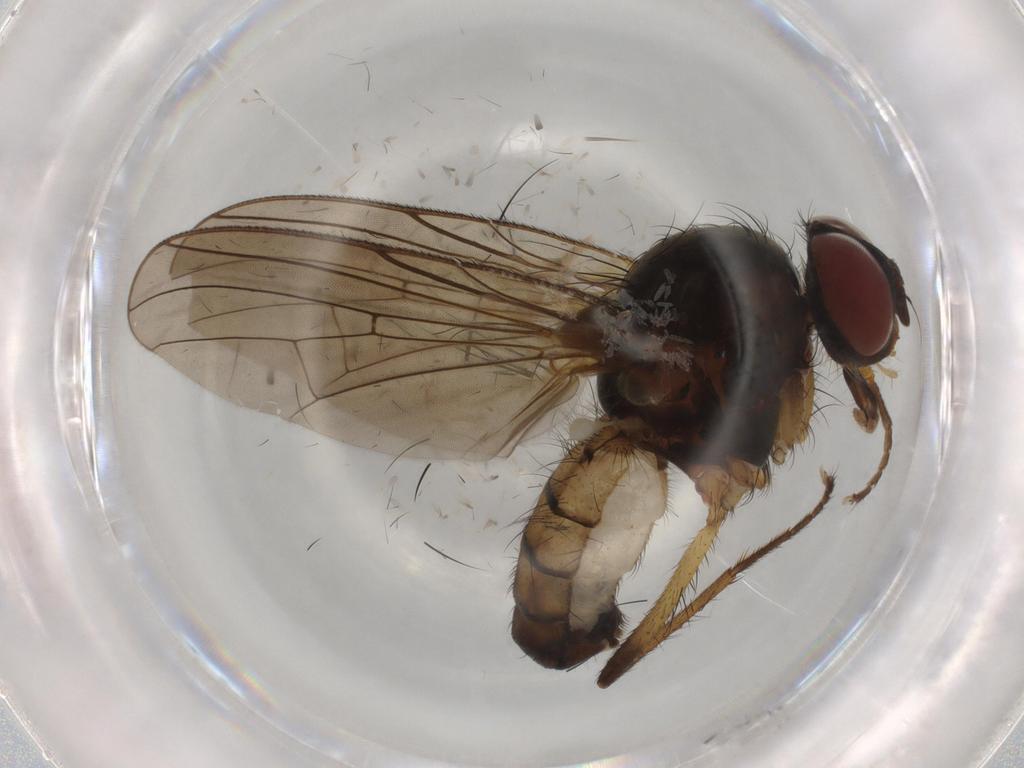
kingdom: Animalia
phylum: Arthropoda
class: Insecta
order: Diptera
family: Anthomyiidae
